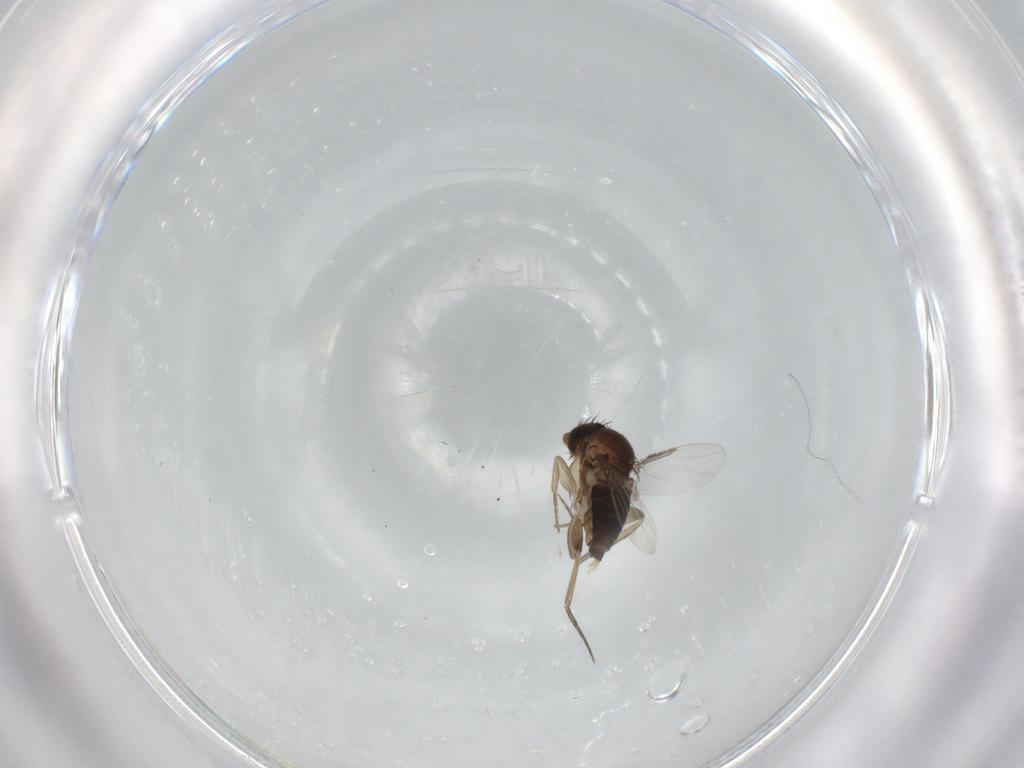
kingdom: Animalia
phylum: Arthropoda
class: Insecta
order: Diptera
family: Phoridae
